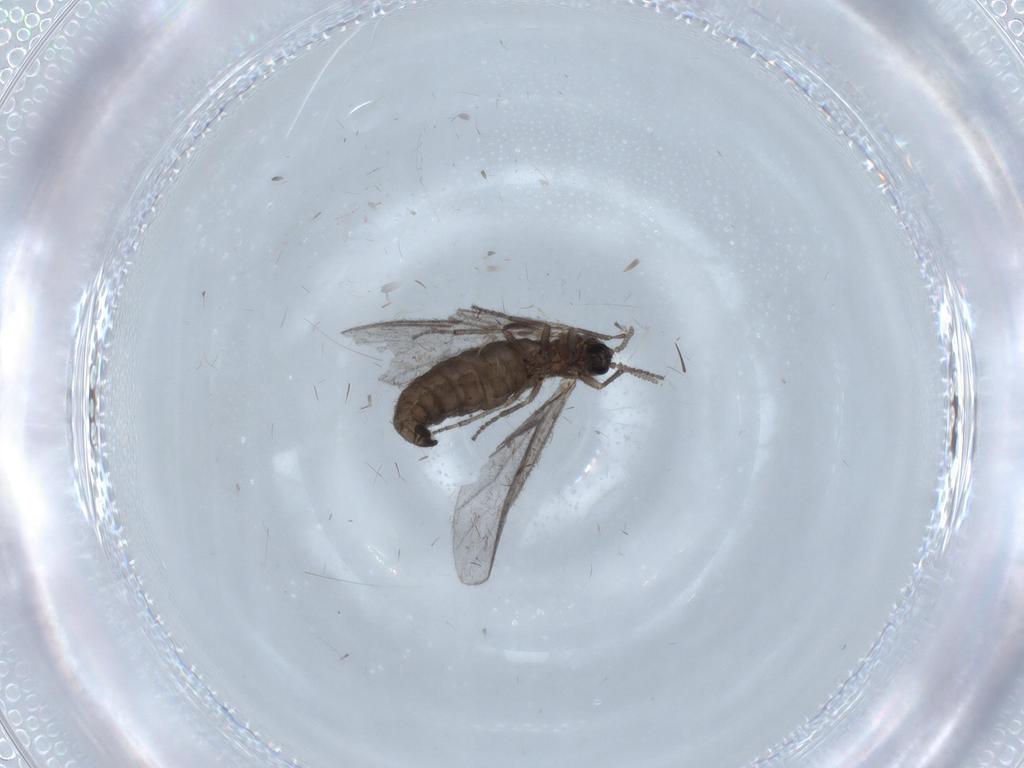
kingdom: Animalia
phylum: Arthropoda
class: Insecta
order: Diptera
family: Sciaridae
